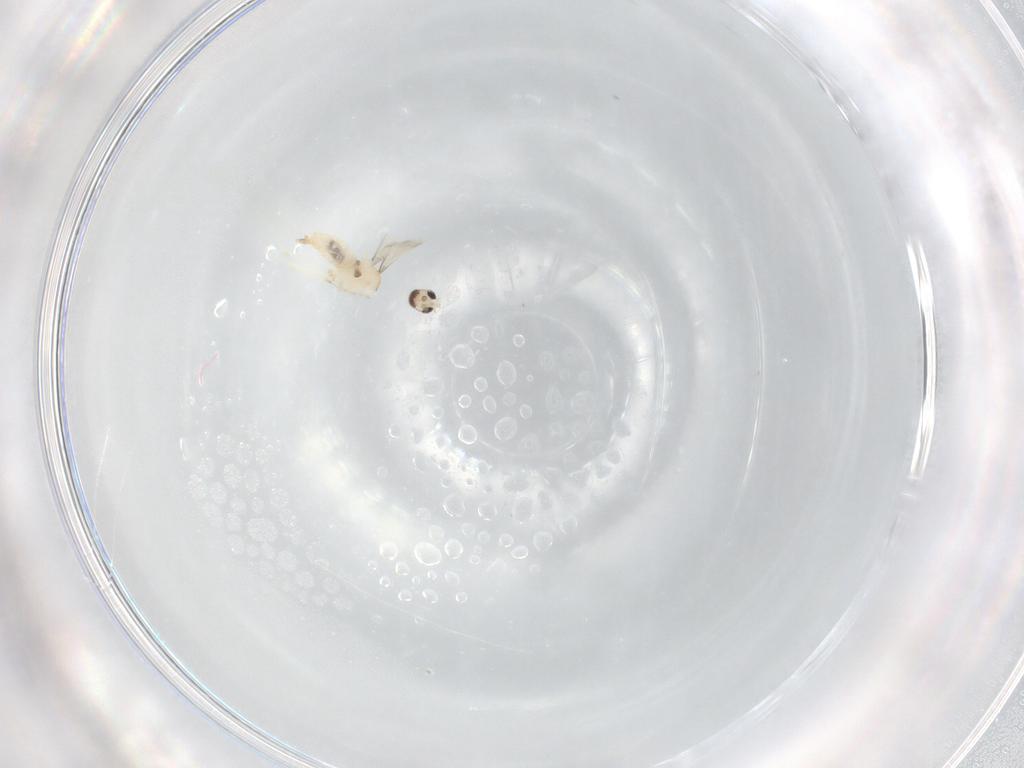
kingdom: Animalia
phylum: Arthropoda
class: Insecta
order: Diptera
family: Cecidomyiidae
